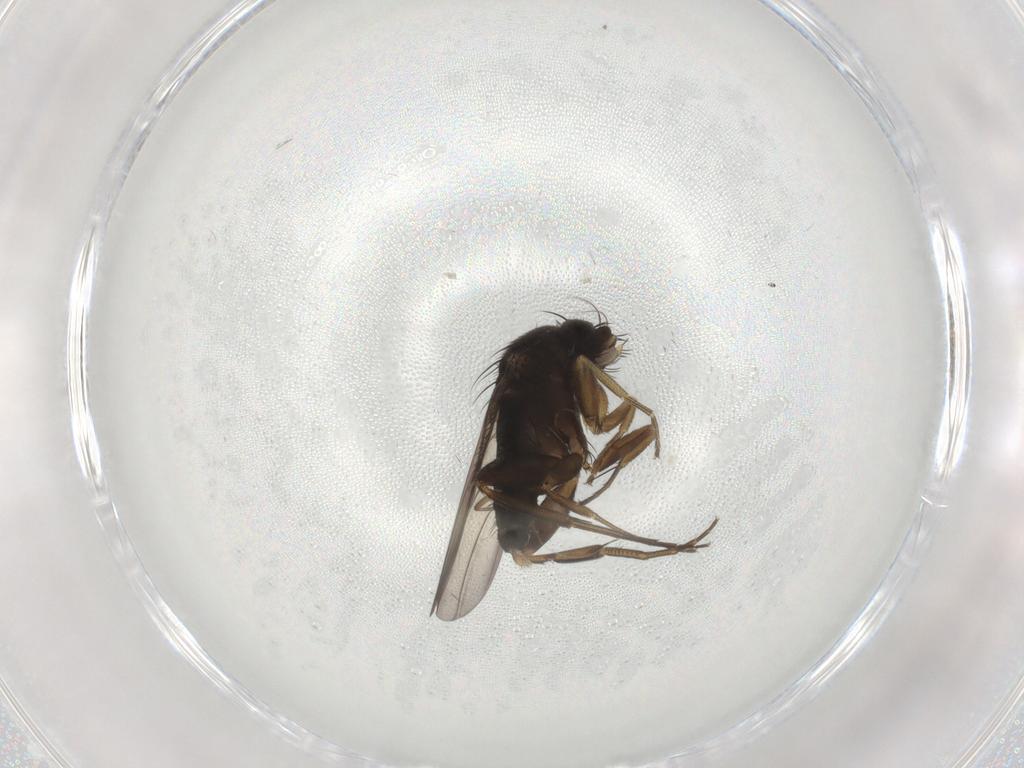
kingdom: Animalia
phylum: Arthropoda
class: Insecta
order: Diptera
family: Phoridae
